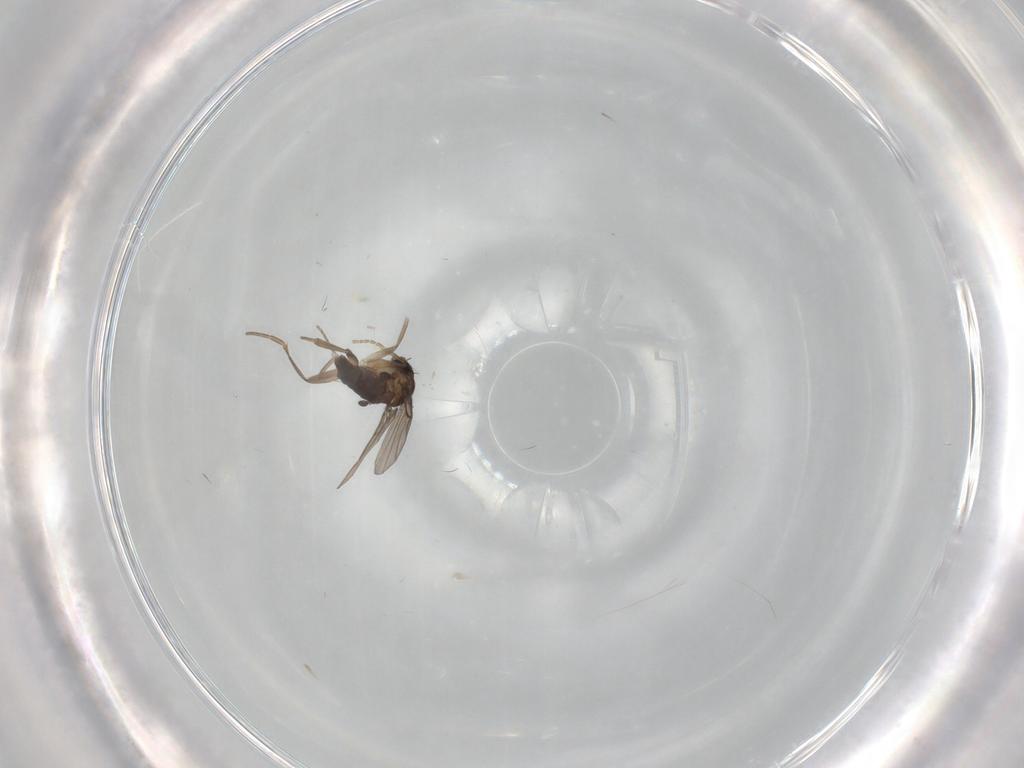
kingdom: Animalia
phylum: Arthropoda
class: Insecta
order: Diptera
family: Phoridae
